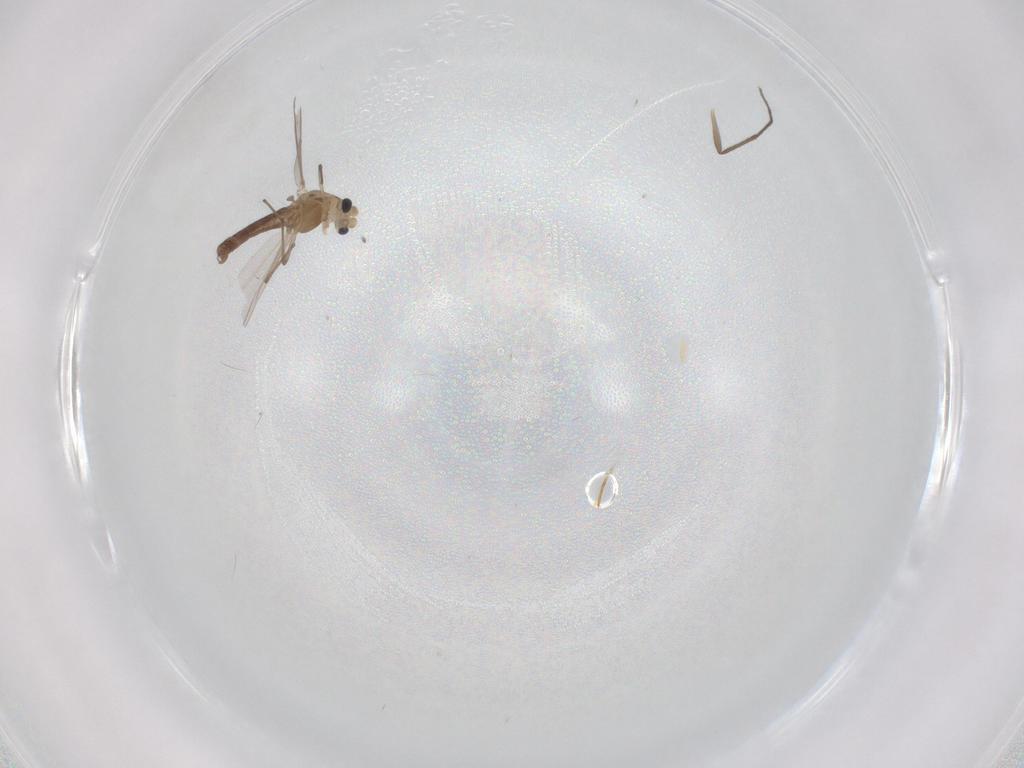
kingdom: Animalia
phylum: Arthropoda
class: Insecta
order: Diptera
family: Chironomidae
